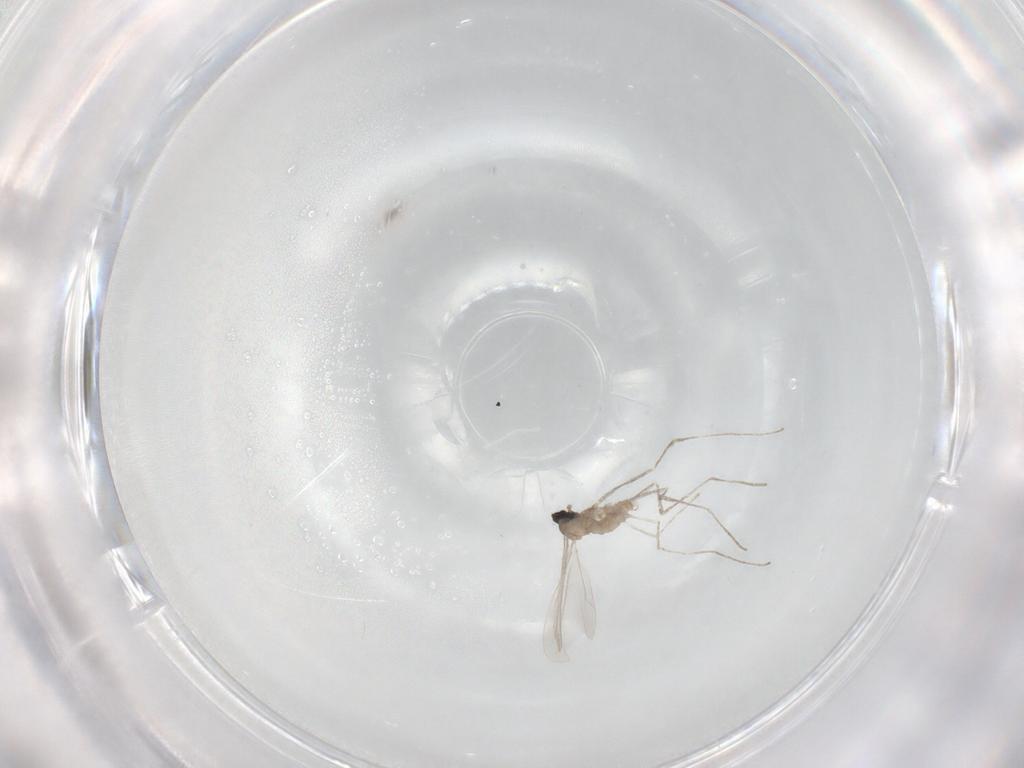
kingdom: Animalia
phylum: Arthropoda
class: Insecta
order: Diptera
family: Cecidomyiidae
